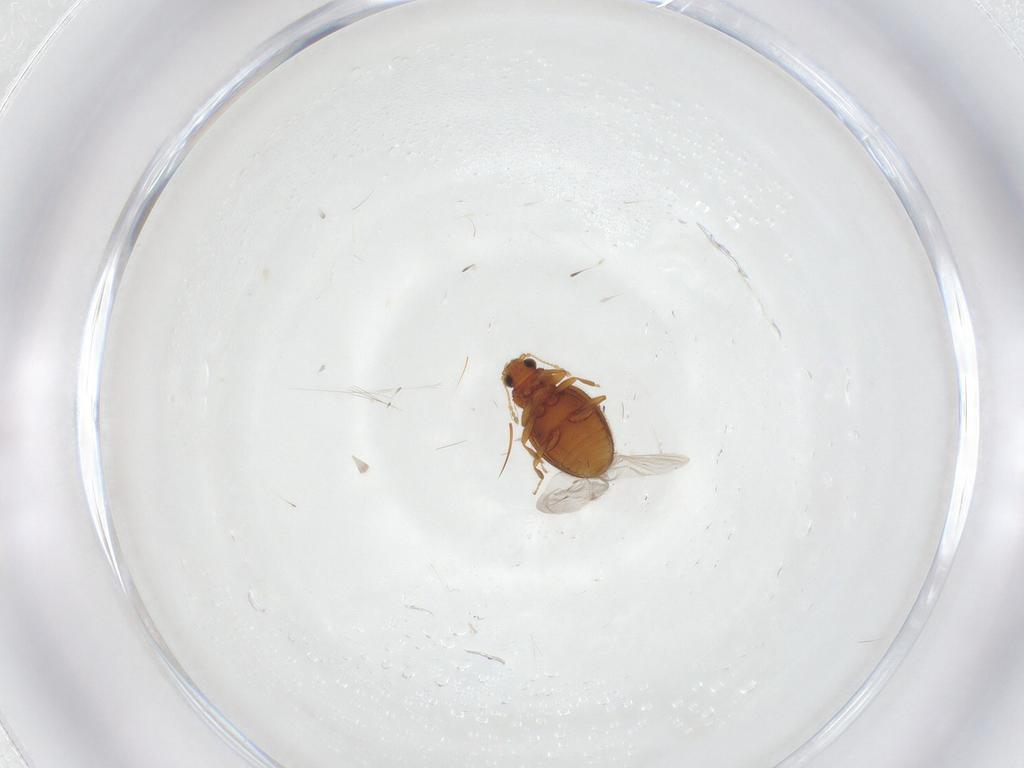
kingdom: Animalia
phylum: Arthropoda
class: Insecta
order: Coleoptera
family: Latridiidae
